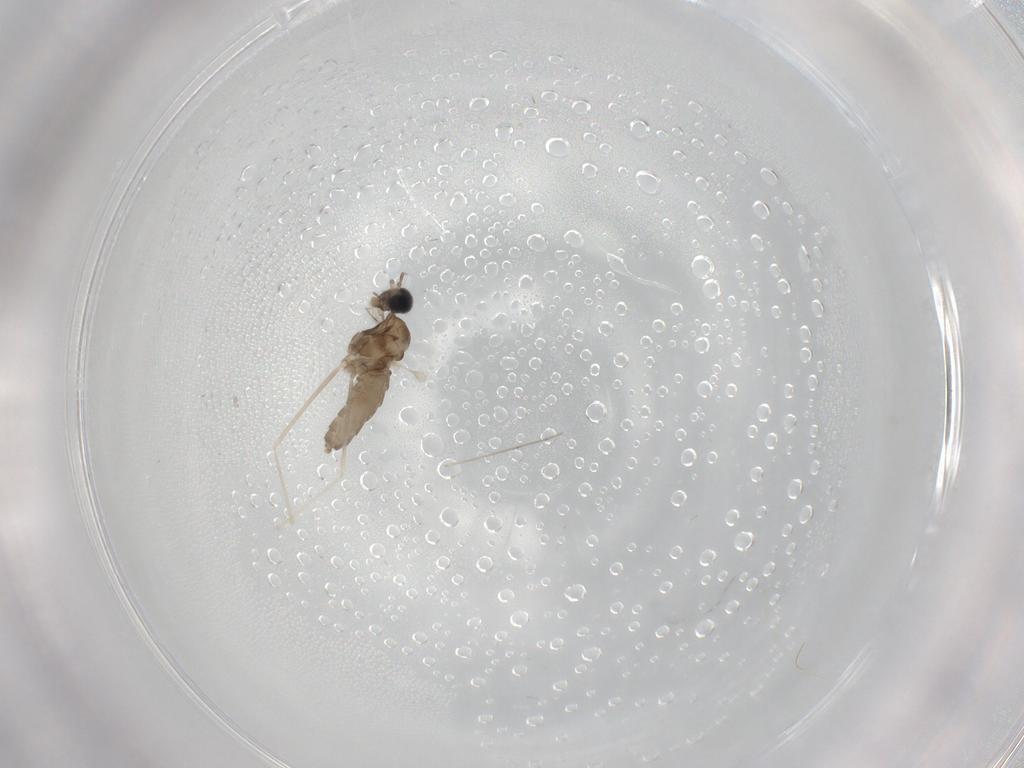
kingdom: Animalia
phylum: Arthropoda
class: Insecta
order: Diptera
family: Cecidomyiidae
